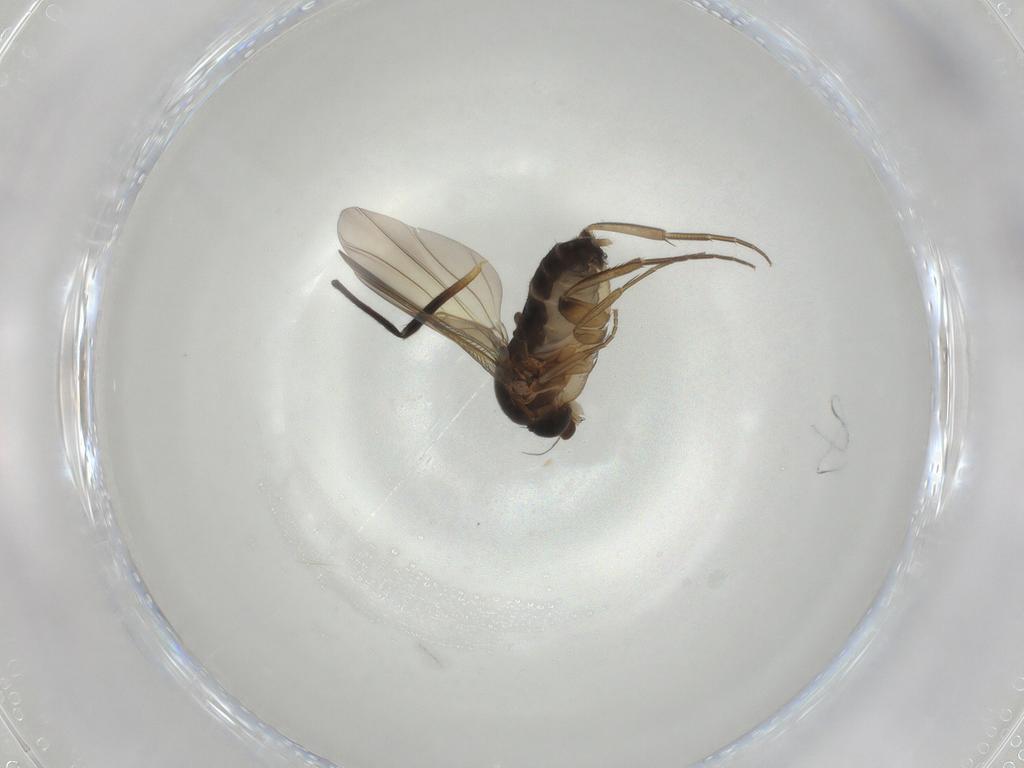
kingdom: Animalia
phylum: Arthropoda
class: Insecta
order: Diptera
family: Phoridae
